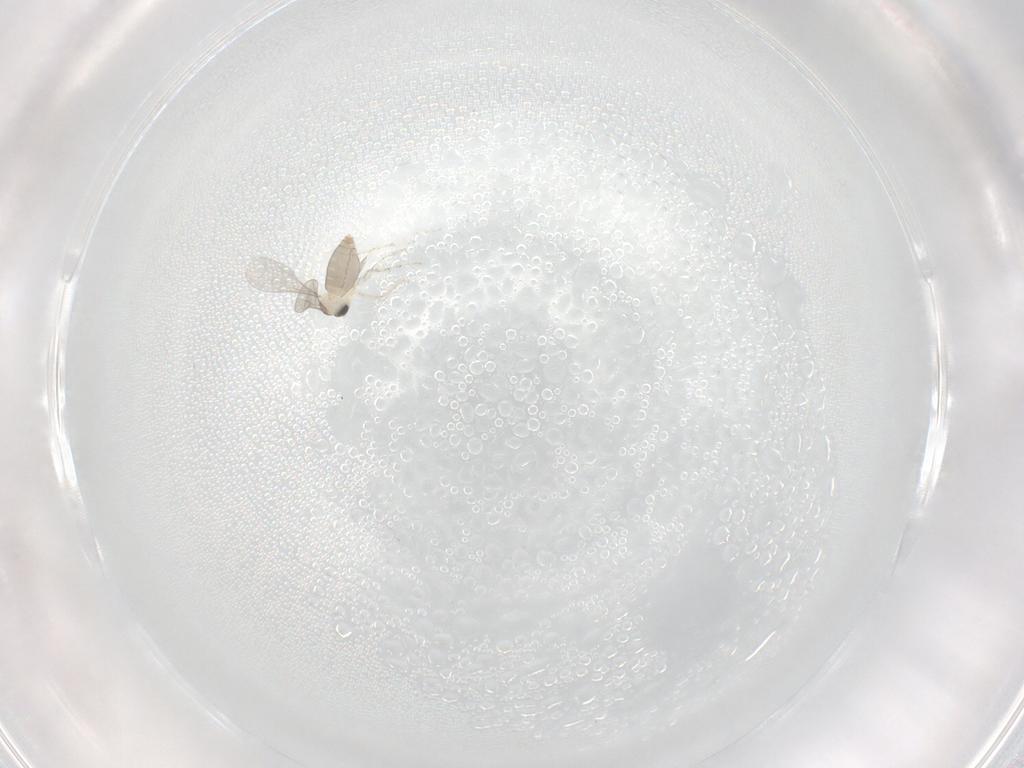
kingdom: Animalia
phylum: Arthropoda
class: Insecta
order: Diptera
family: Cecidomyiidae
